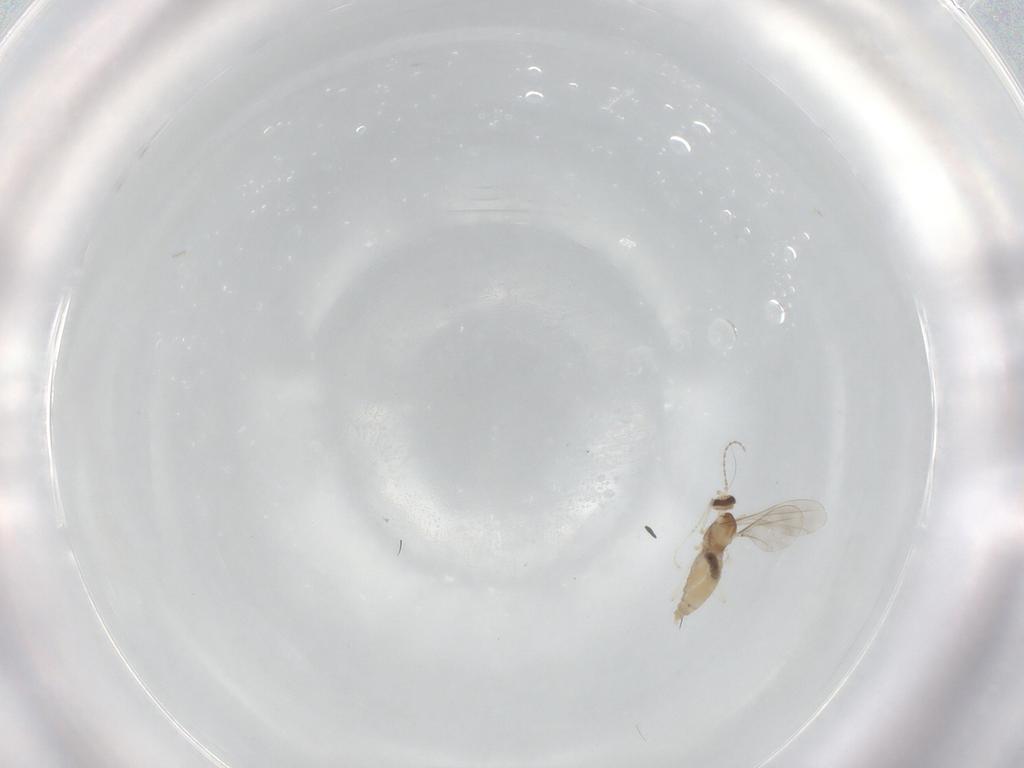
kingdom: Animalia
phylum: Arthropoda
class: Insecta
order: Diptera
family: Cecidomyiidae
